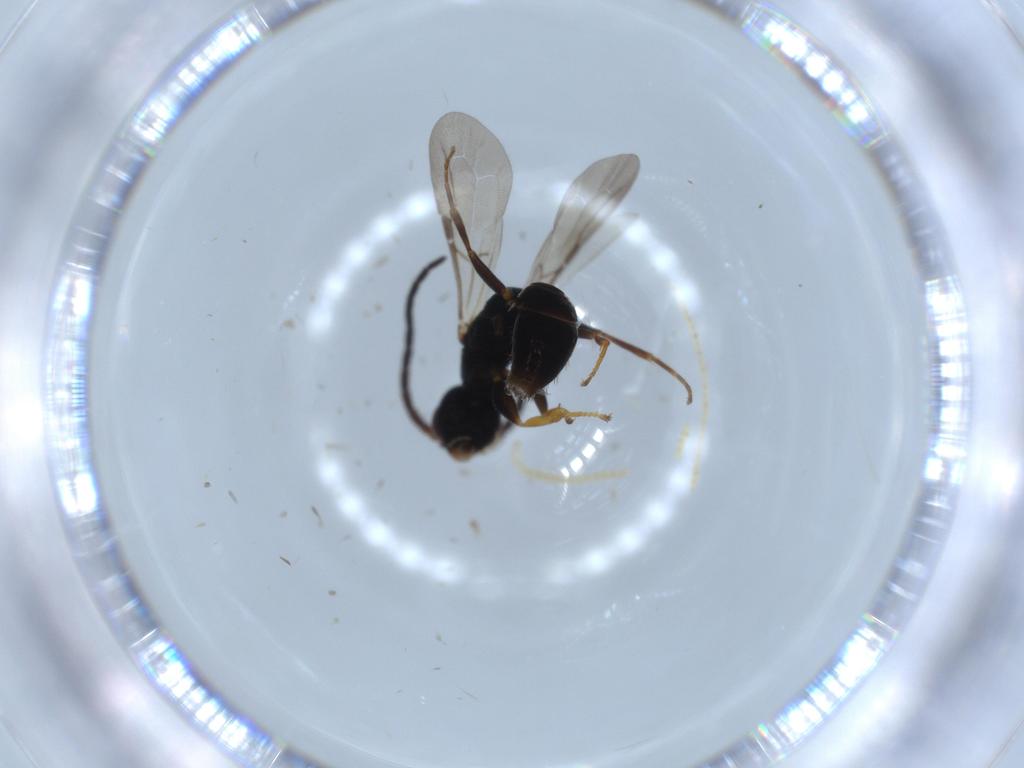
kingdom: Animalia
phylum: Arthropoda
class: Insecta
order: Hymenoptera
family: Bethylidae
